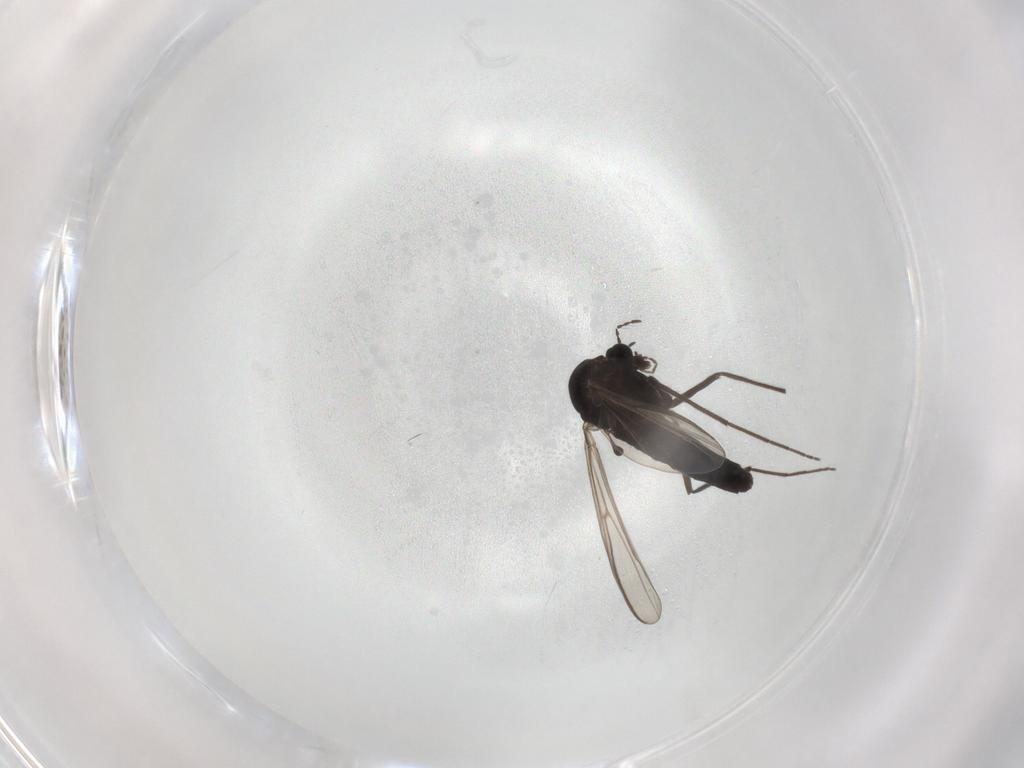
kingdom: Animalia
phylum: Arthropoda
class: Insecta
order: Diptera
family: Chironomidae
